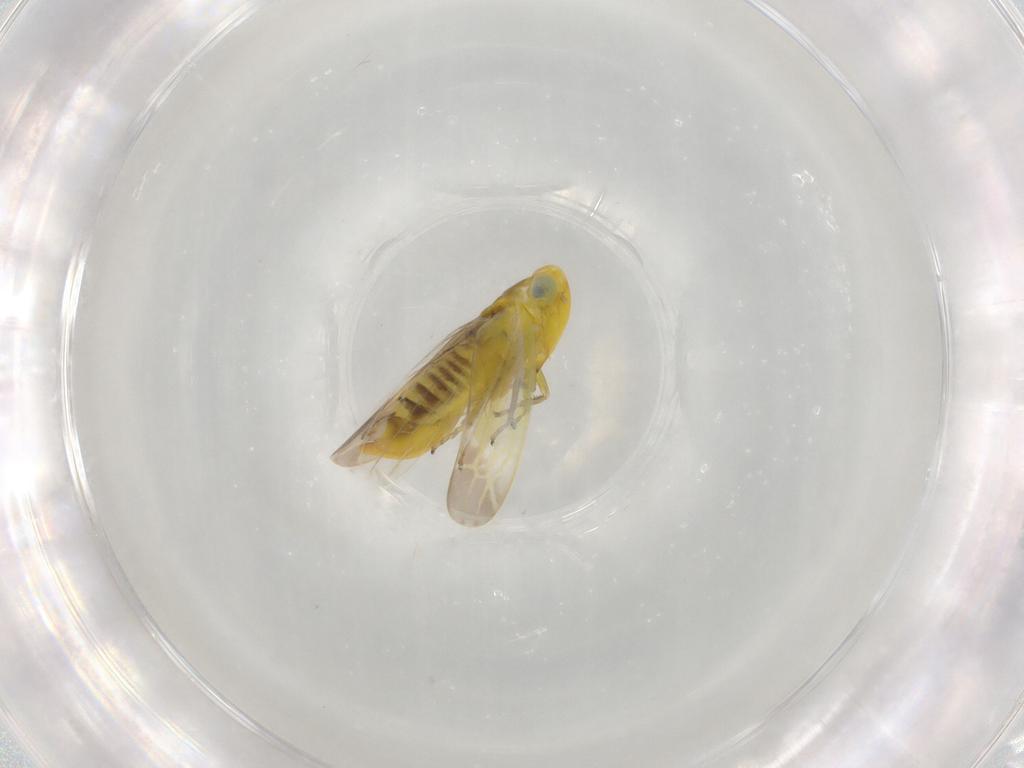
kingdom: Animalia
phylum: Arthropoda
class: Insecta
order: Hemiptera
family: Cicadellidae
